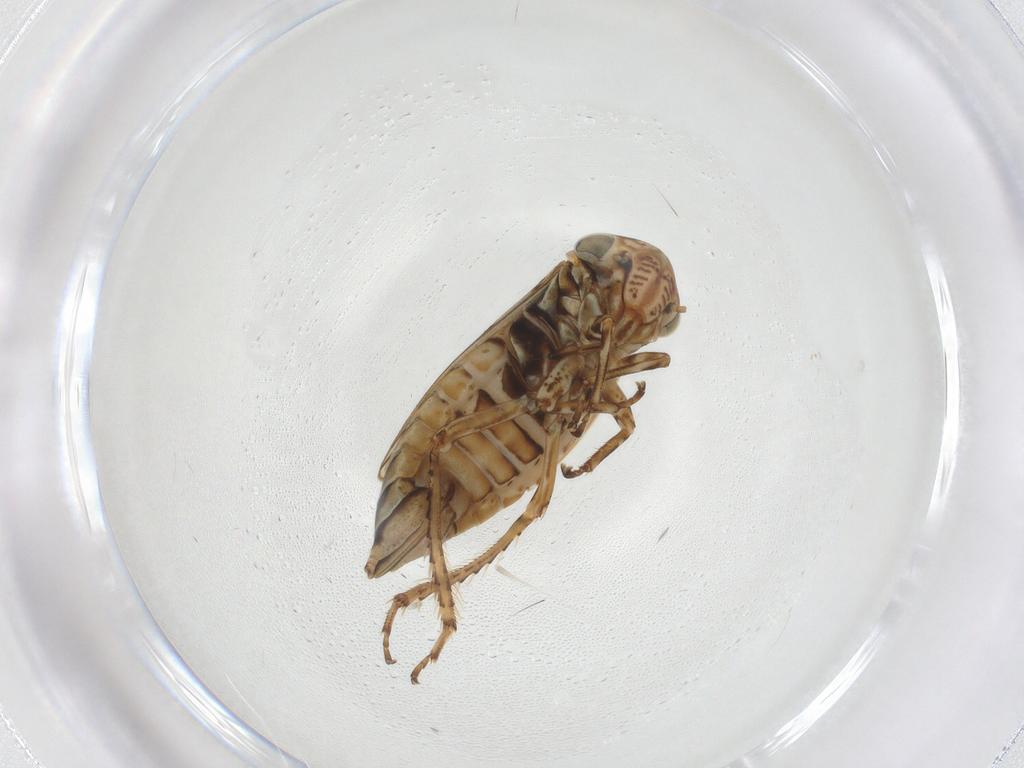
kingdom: Animalia
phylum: Arthropoda
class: Insecta
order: Hemiptera
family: Cicadellidae
